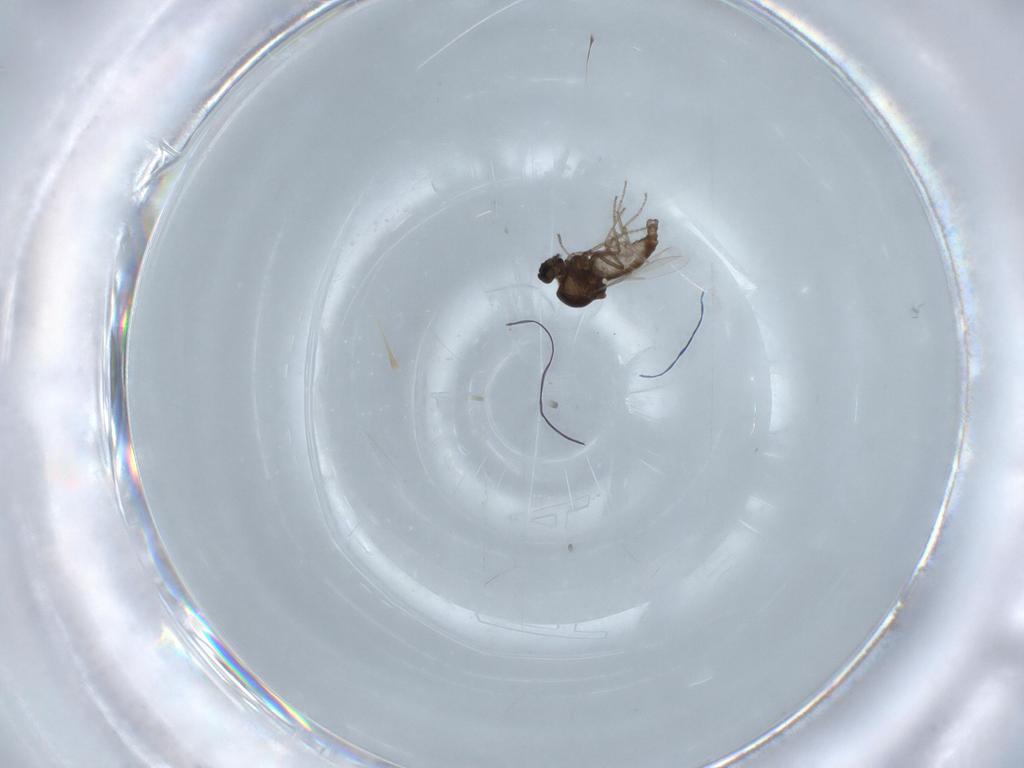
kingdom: Animalia
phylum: Arthropoda
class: Insecta
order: Diptera
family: Ceratopogonidae
